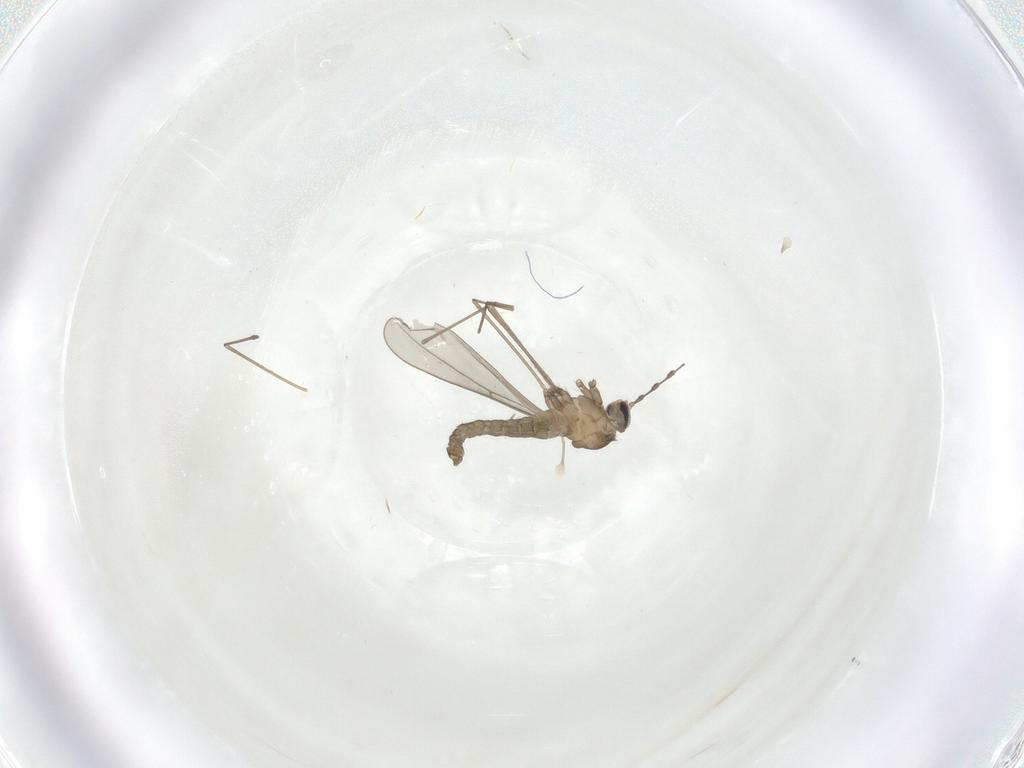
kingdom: Animalia
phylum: Arthropoda
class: Insecta
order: Diptera
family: Cecidomyiidae
